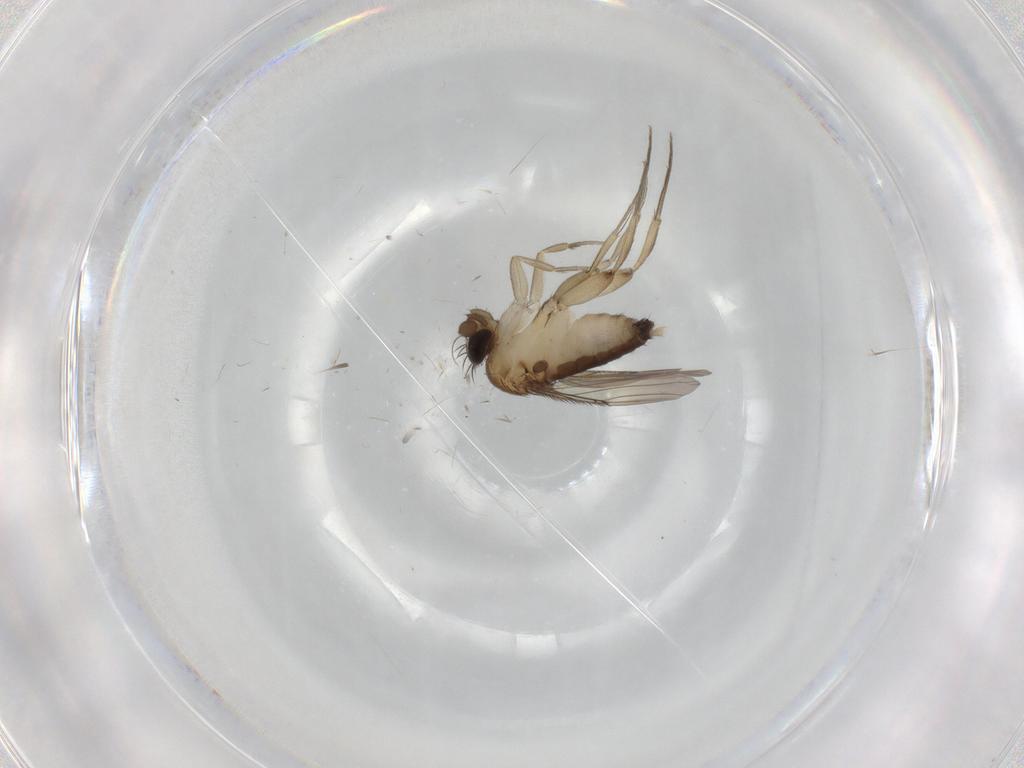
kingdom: Animalia
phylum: Arthropoda
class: Insecta
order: Diptera
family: Phoridae
